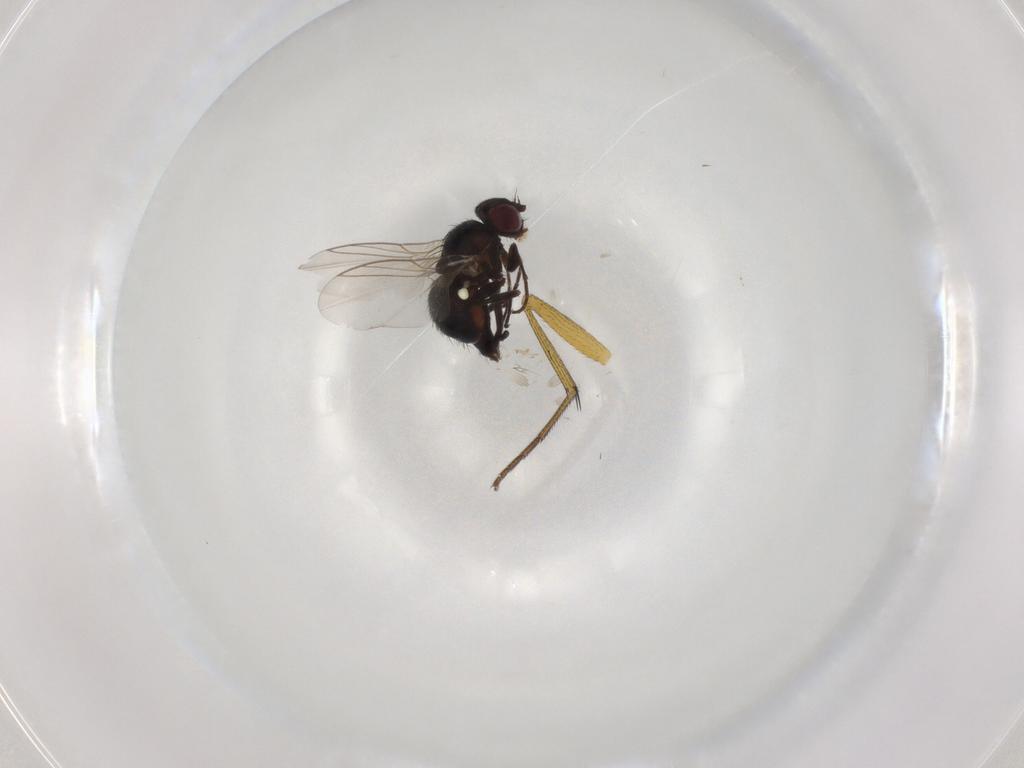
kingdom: Animalia
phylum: Arthropoda
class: Insecta
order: Diptera
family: Agromyzidae
